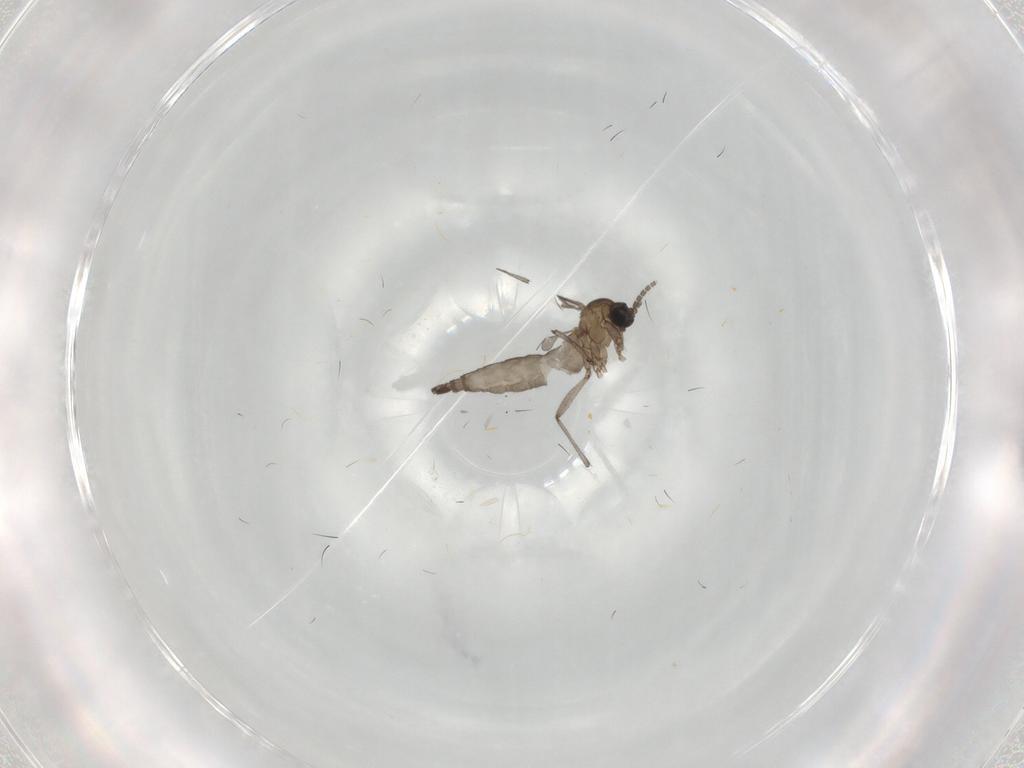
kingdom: Animalia
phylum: Arthropoda
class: Insecta
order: Diptera
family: Sciaridae
